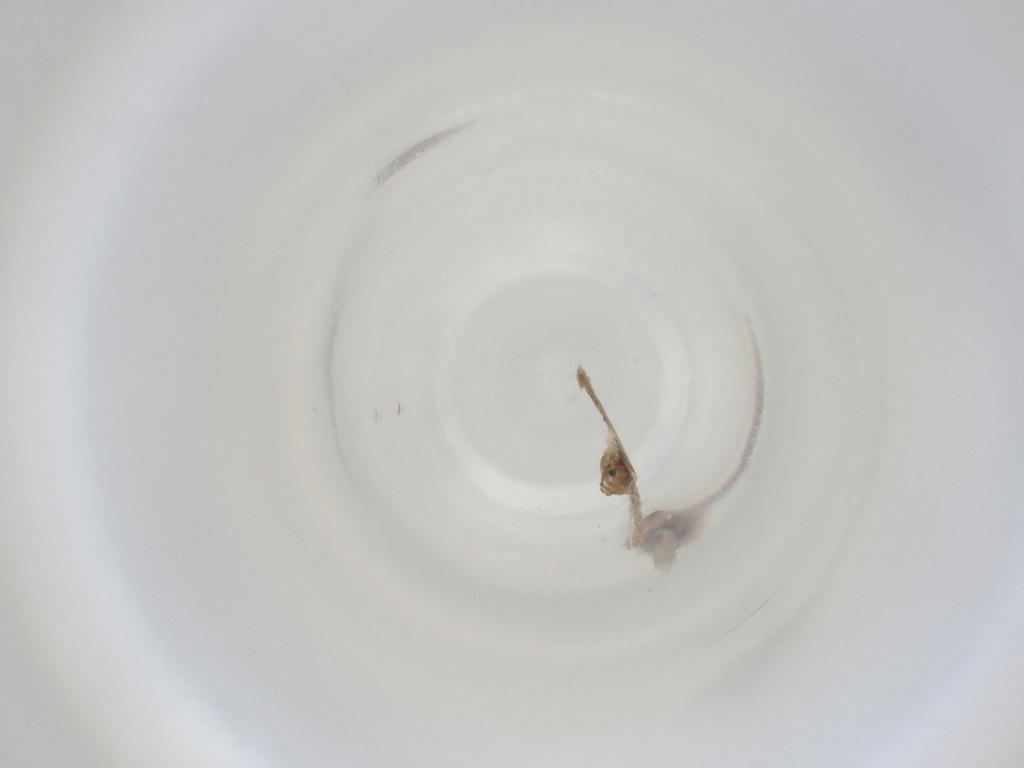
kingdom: Animalia
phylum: Arthropoda
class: Insecta
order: Diptera
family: Cecidomyiidae
